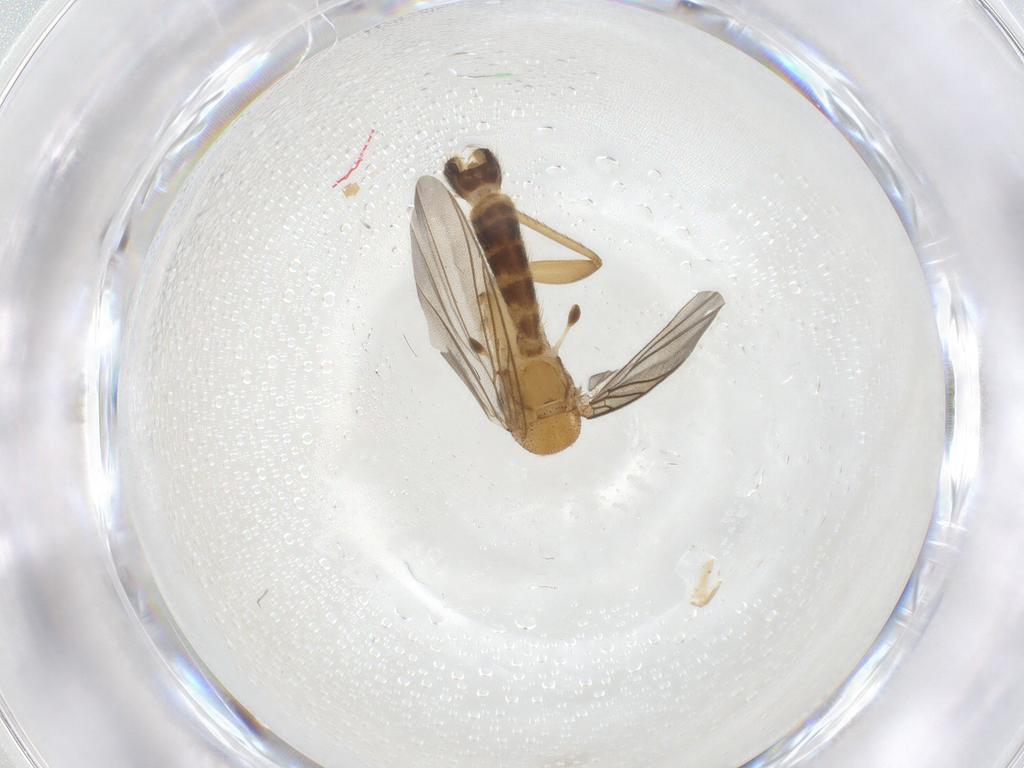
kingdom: Animalia
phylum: Arthropoda
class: Insecta
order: Diptera
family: Mycetophilidae
